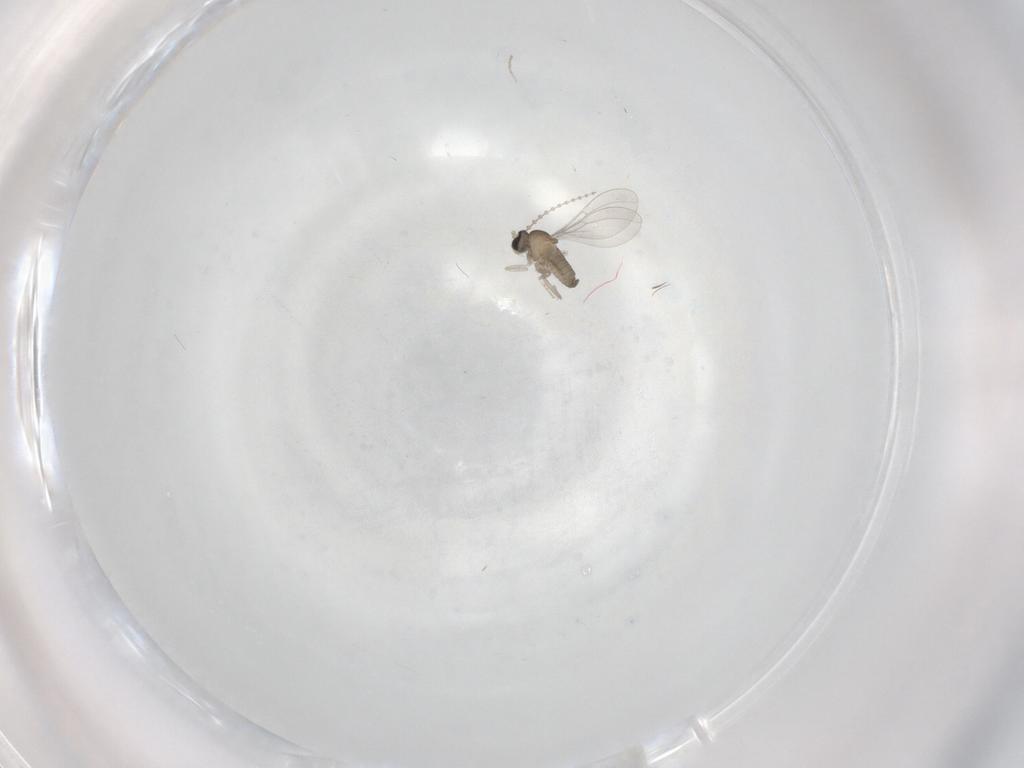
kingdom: Animalia
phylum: Arthropoda
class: Insecta
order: Diptera
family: Cecidomyiidae
